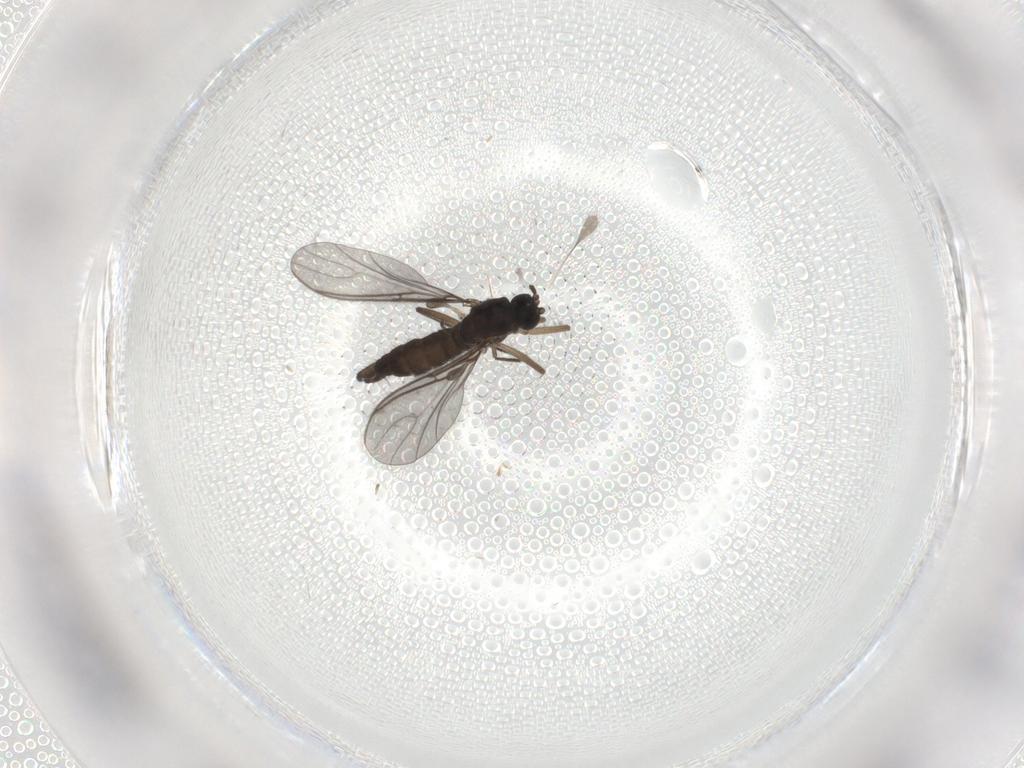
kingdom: Animalia
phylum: Arthropoda
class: Insecta
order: Diptera
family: Sciaridae
